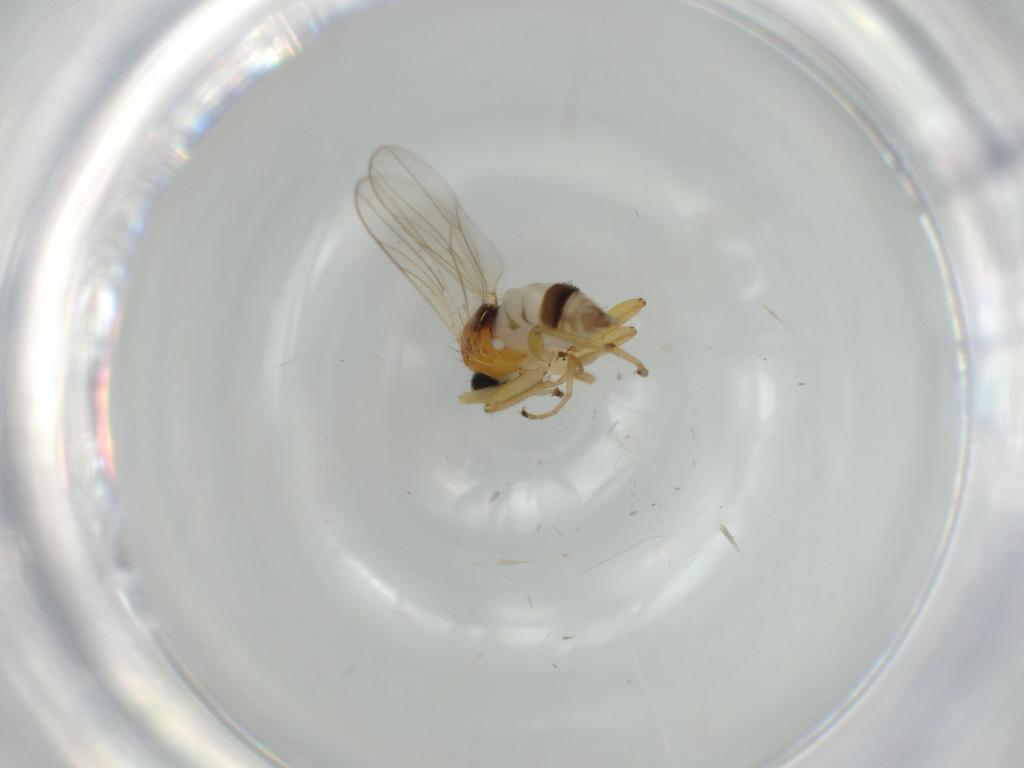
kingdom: Animalia
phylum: Arthropoda
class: Insecta
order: Diptera
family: Hybotidae
